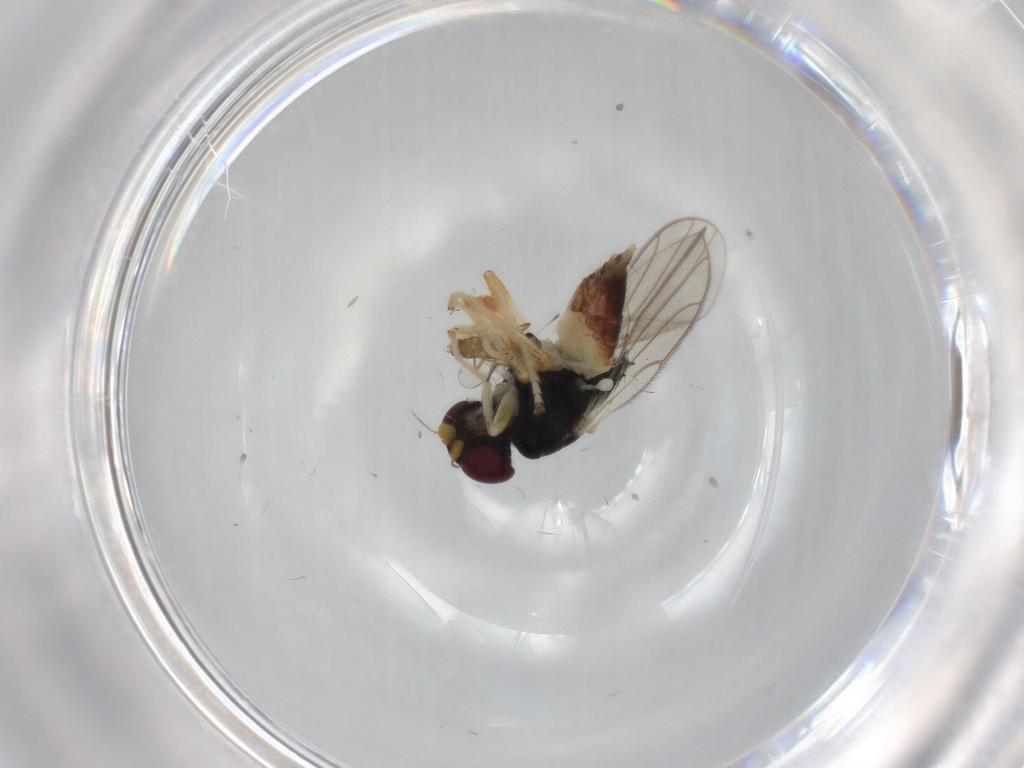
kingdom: Animalia
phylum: Arthropoda
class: Insecta
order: Diptera
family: Chloropidae
